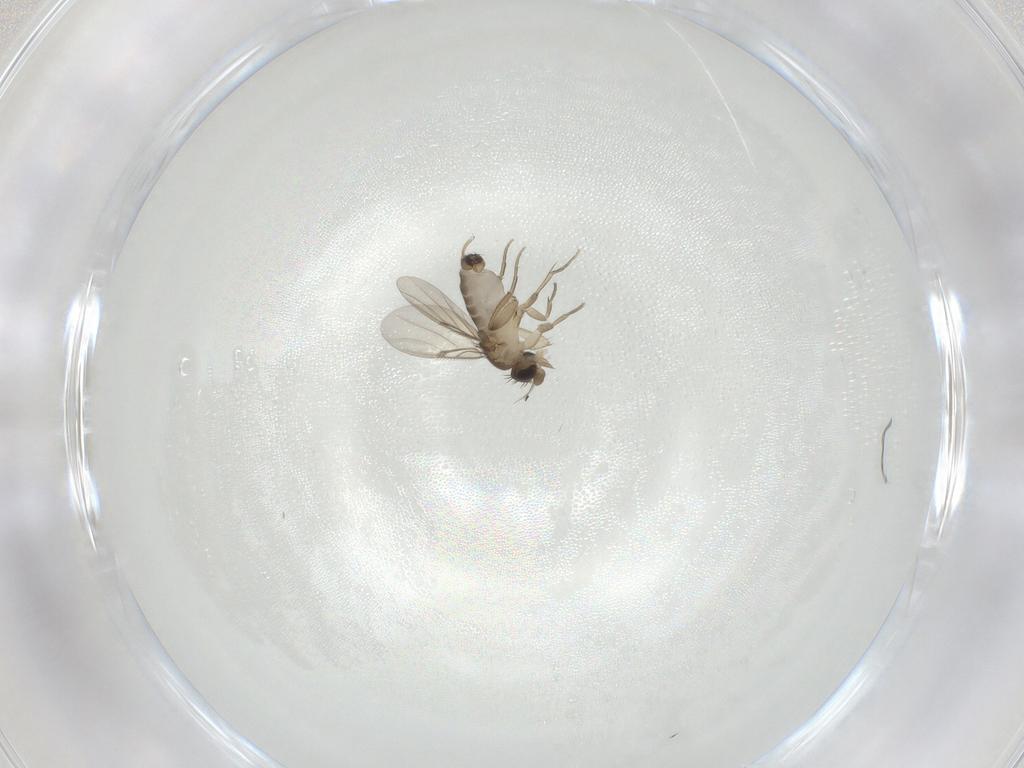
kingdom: Animalia
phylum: Arthropoda
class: Insecta
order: Diptera
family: Phoridae
